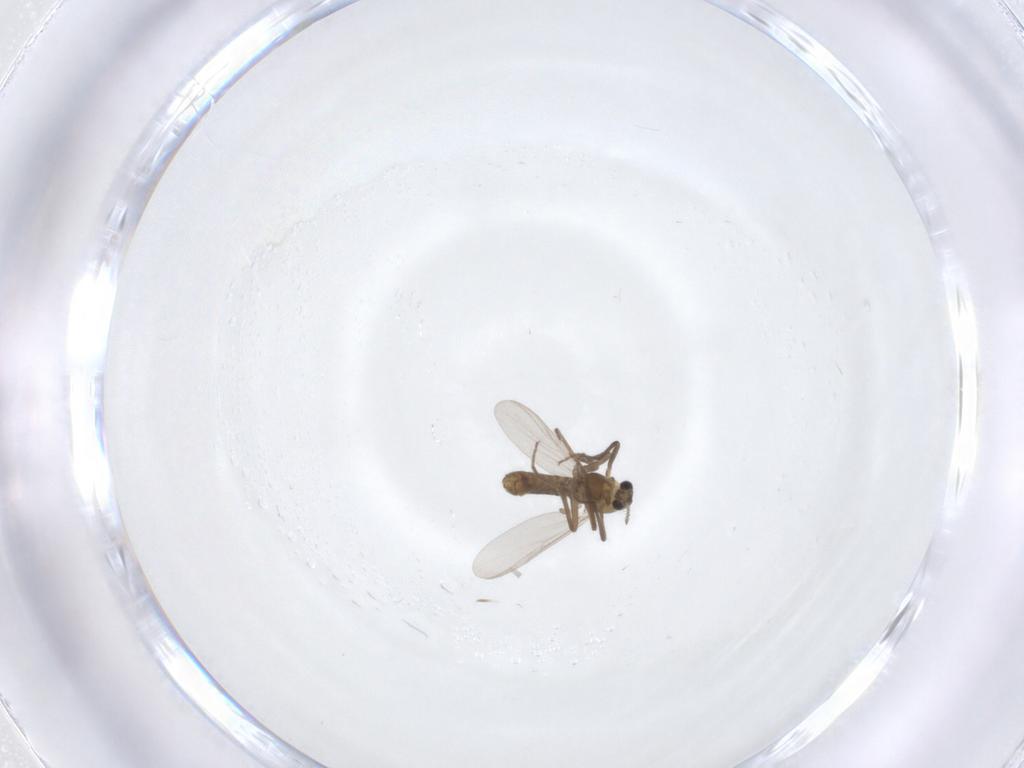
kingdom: Animalia
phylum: Arthropoda
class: Insecta
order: Diptera
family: Chironomidae
